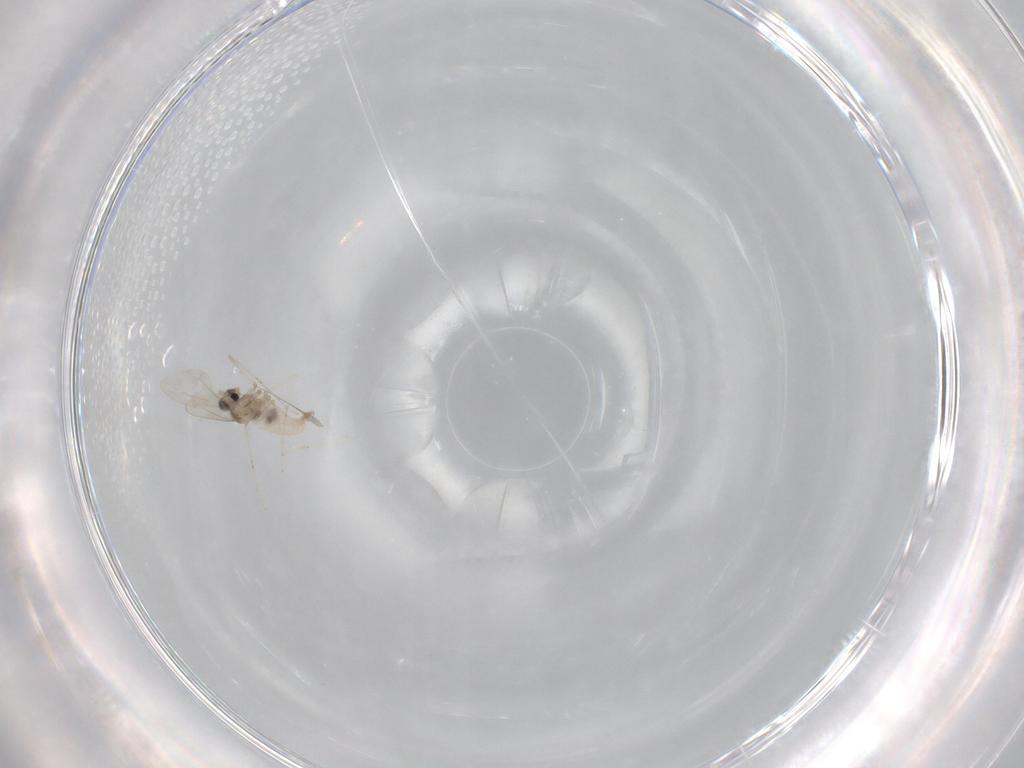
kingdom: Animalia
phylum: Arthropoda
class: Insecta
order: Diptera
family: Cecidomyiidae
